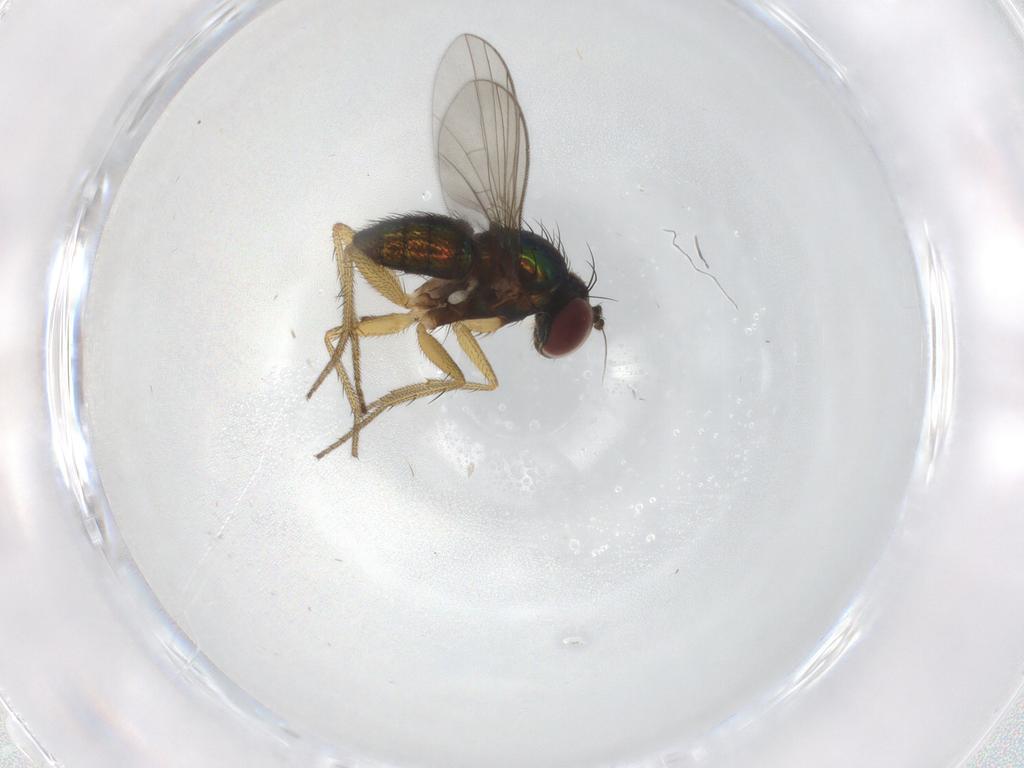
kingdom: Animalia
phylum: Arthropoda
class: Insecta
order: Diptera
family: Dolichopodidae
